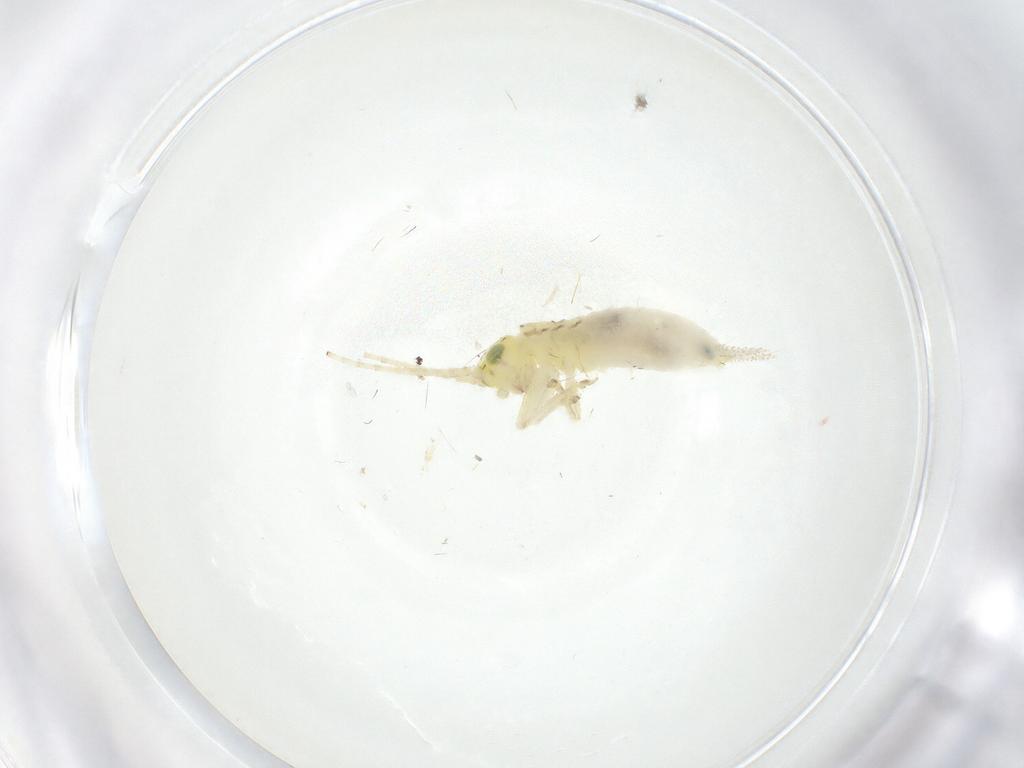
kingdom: Animalia
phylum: Arthropoda
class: Insecta
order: Orthoptera
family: Trigonidiidae
